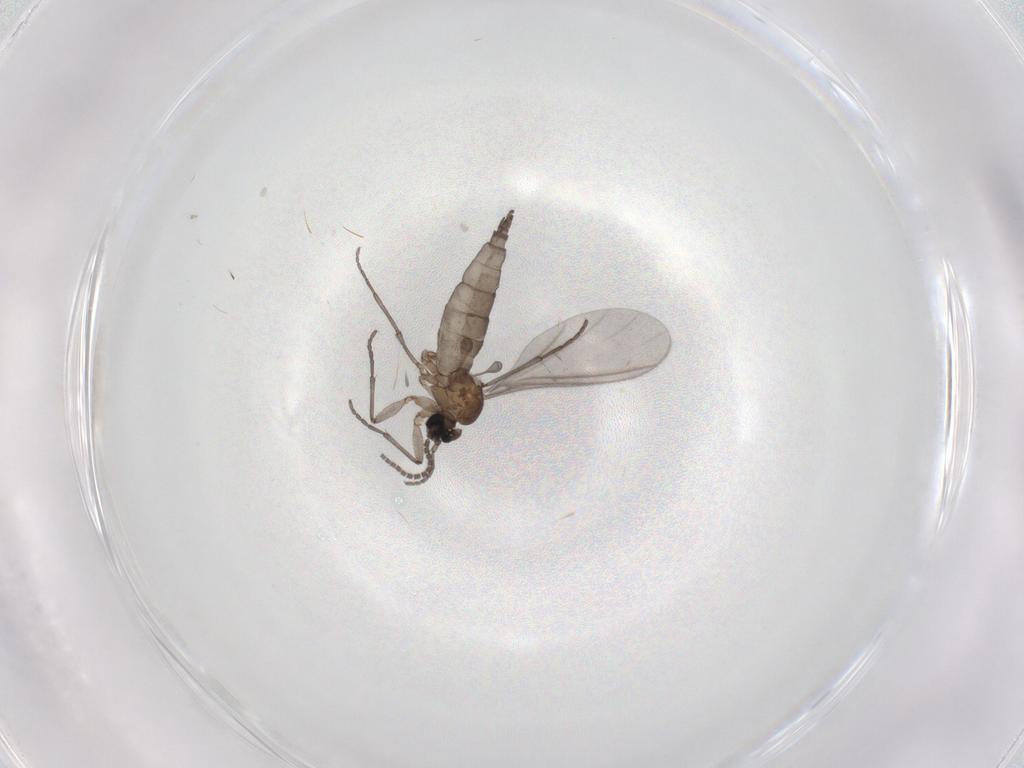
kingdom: Animalia
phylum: Arthropoda
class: Insecta
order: Diptera
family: Sciaridae
